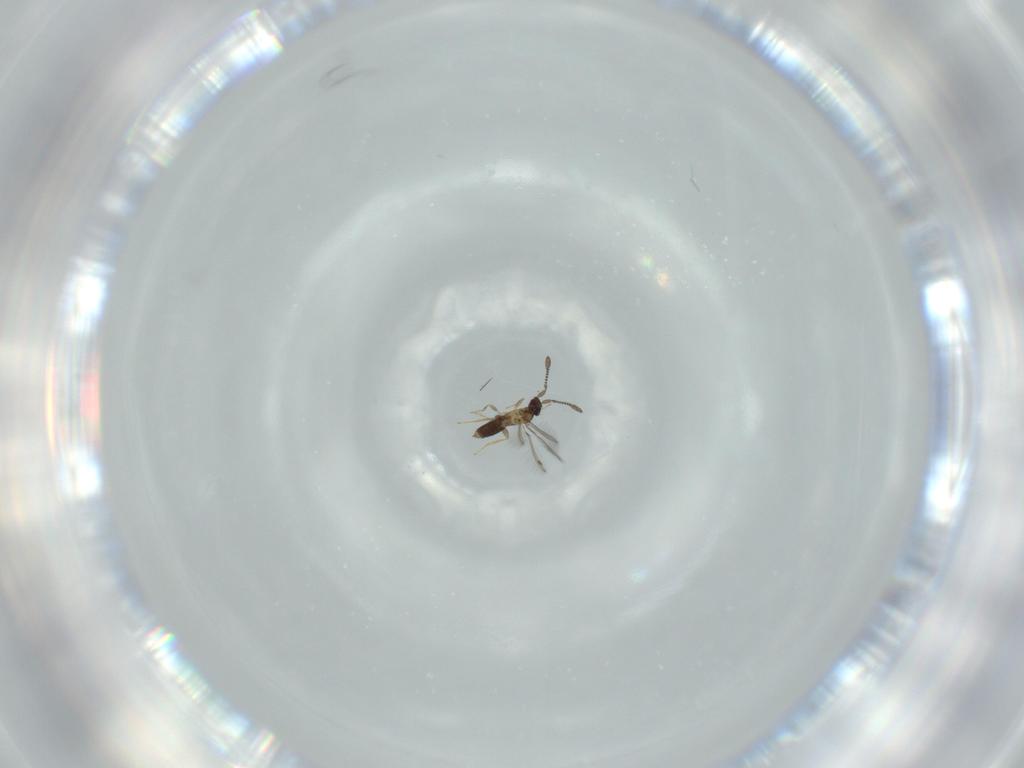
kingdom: Animalia
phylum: Arthropoda
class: Insecta
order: Hymenoptera
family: Mymaridae
